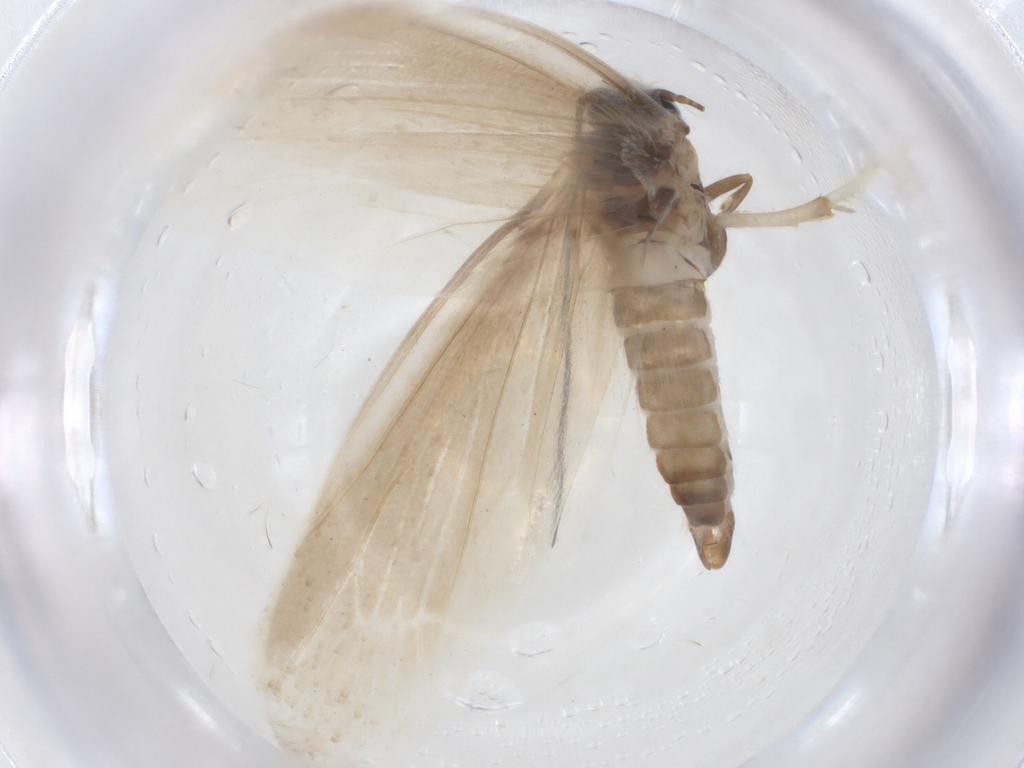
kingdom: Animalia
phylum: Arthropoda
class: Insecta
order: Lepidoptera
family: Tridentaformidae
